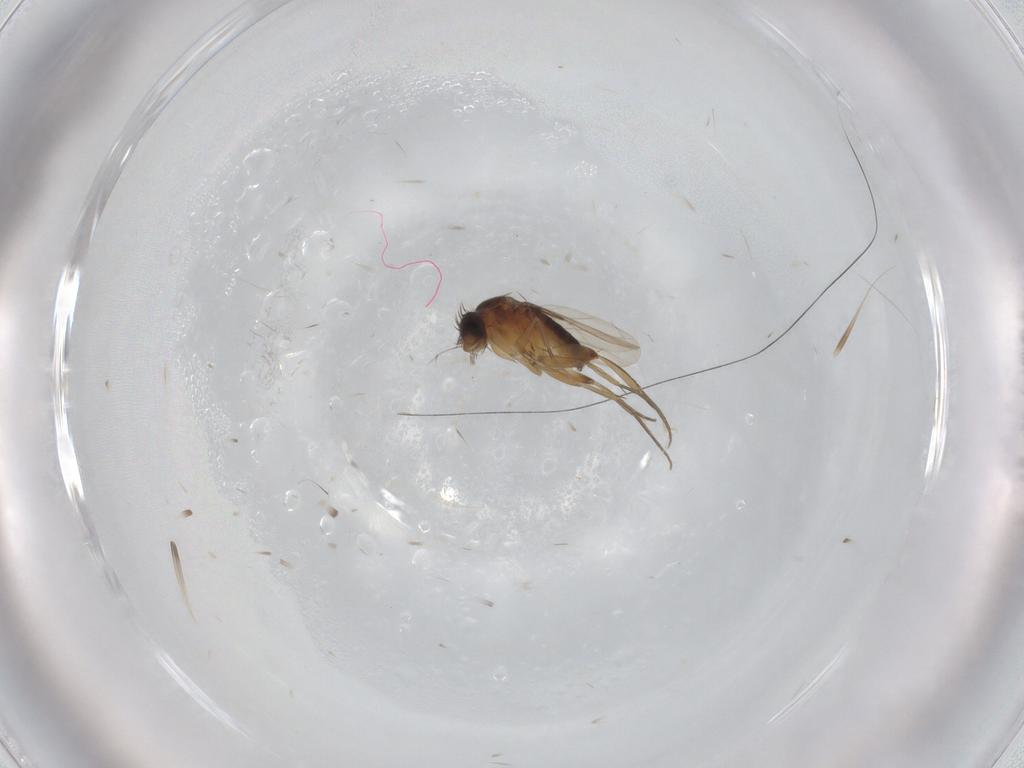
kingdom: Animalia
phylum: Arthropoda
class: Insecta
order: Diptera
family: Phoridae
